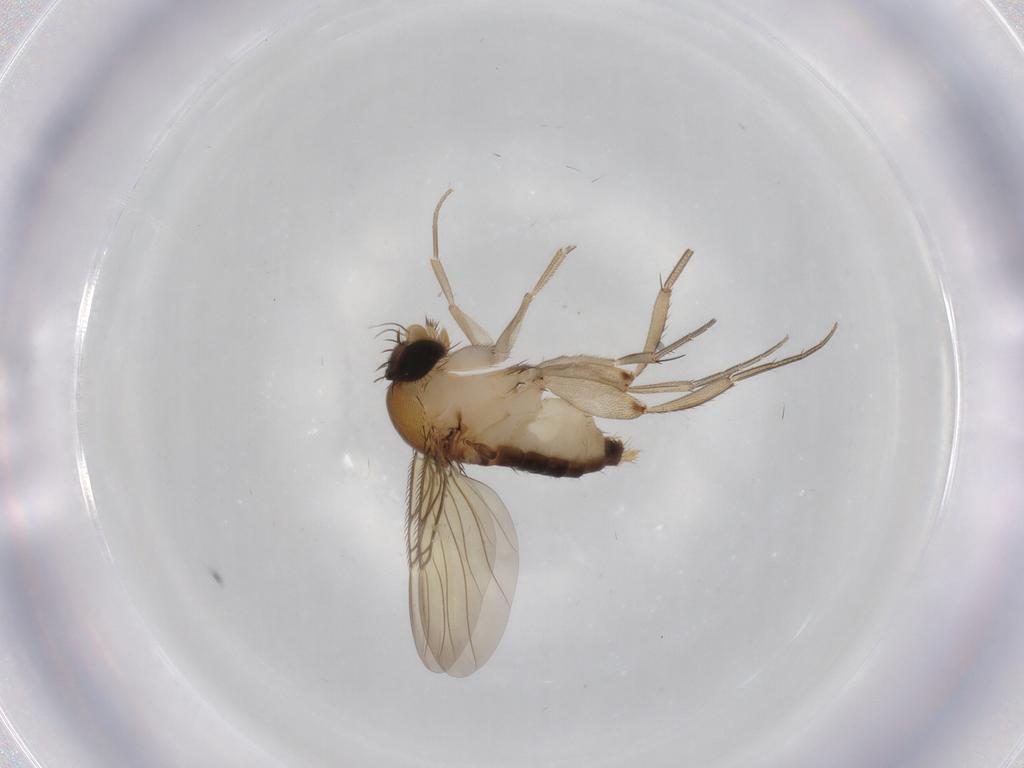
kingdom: Animalia
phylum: Arthropoda
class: Insecta
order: Diptera
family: Phoridae
